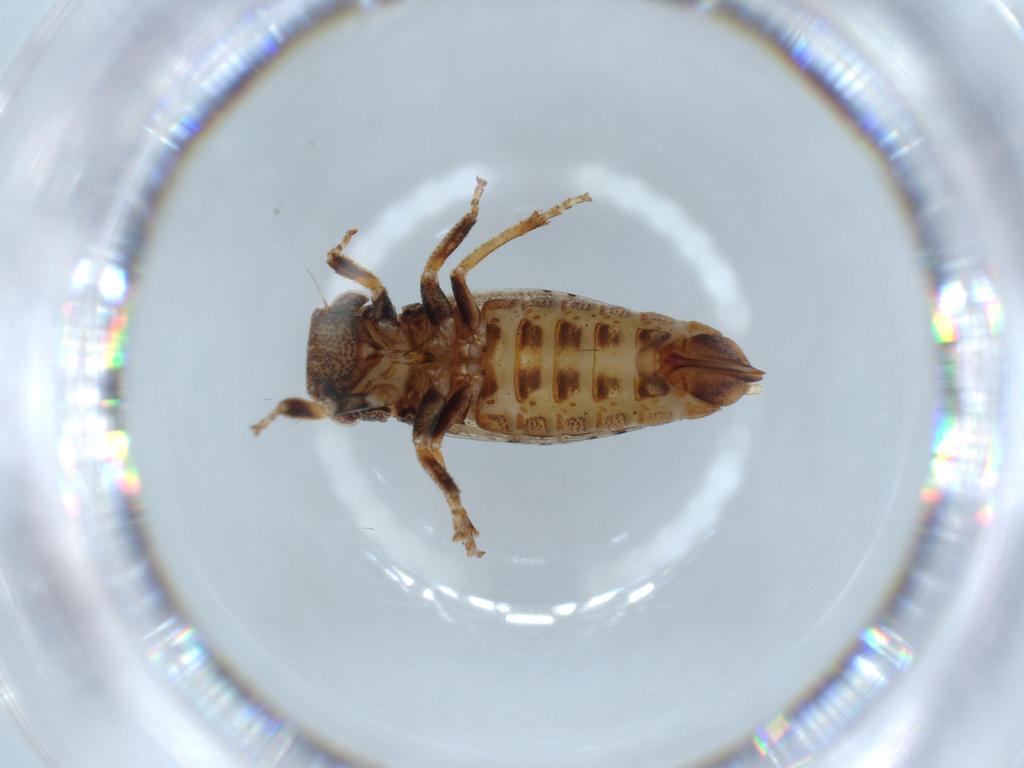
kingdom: Animalia
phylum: Arthropoda
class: Insecta
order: Hemiptera
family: Cicadellidae
